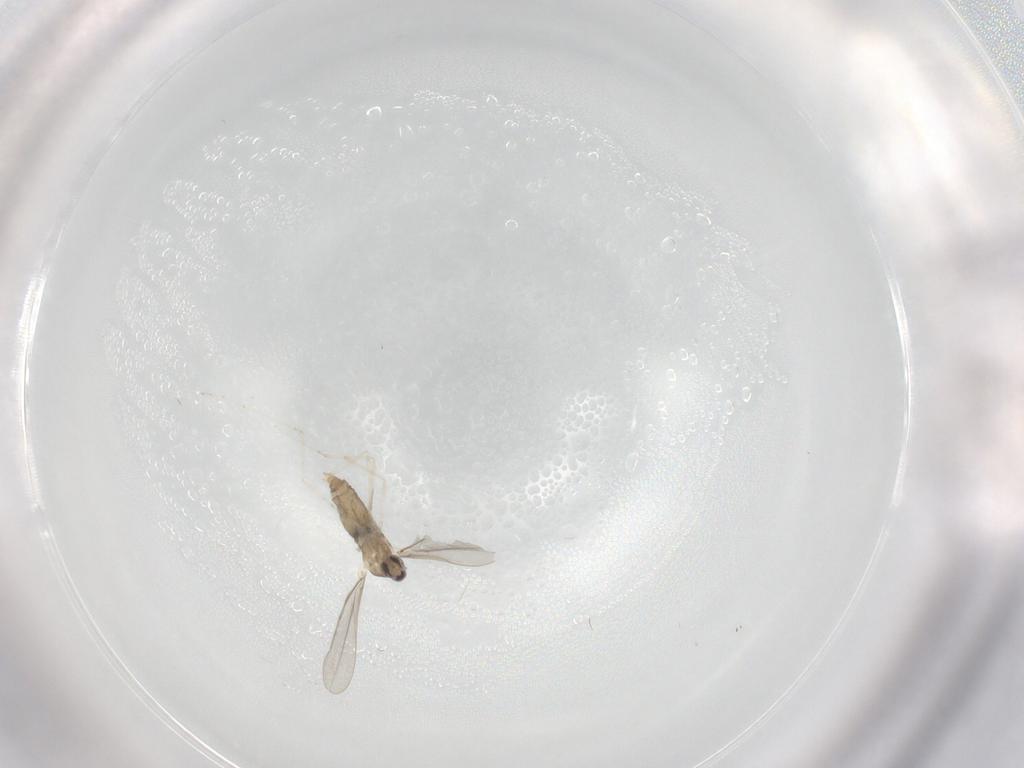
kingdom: Animalia
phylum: Arthropoda
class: Insecta
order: Diptera
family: Cecidomyiidae
